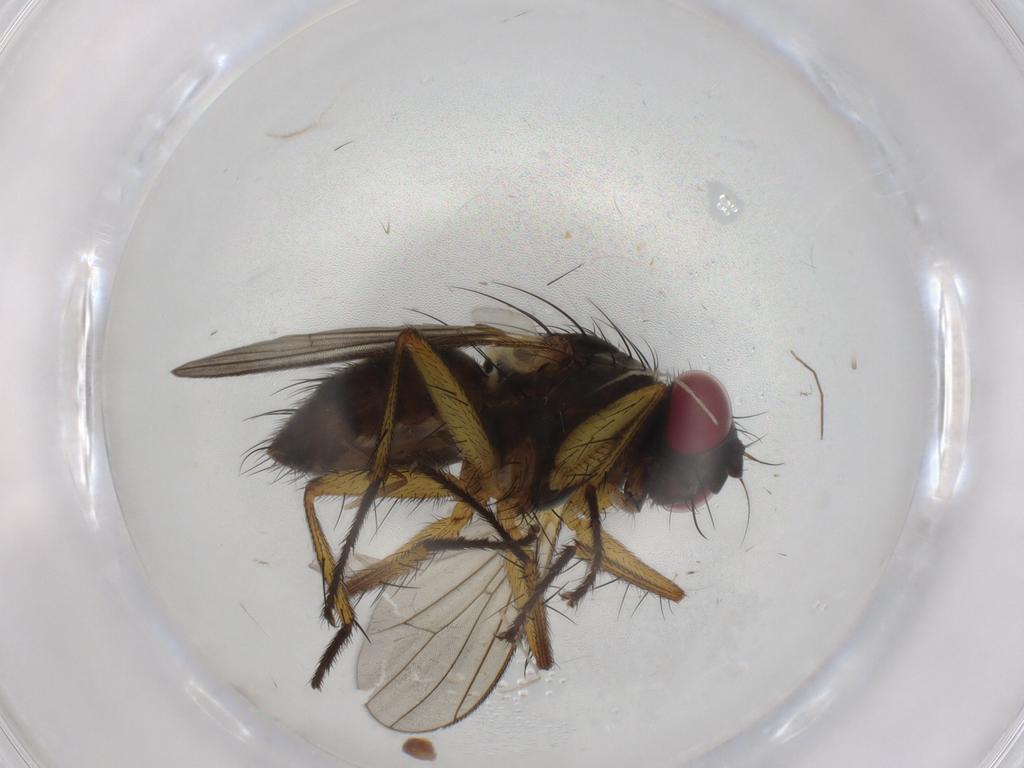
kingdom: Animalia
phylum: Arthropoda
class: Insecta
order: Diptera
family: Muscidae
